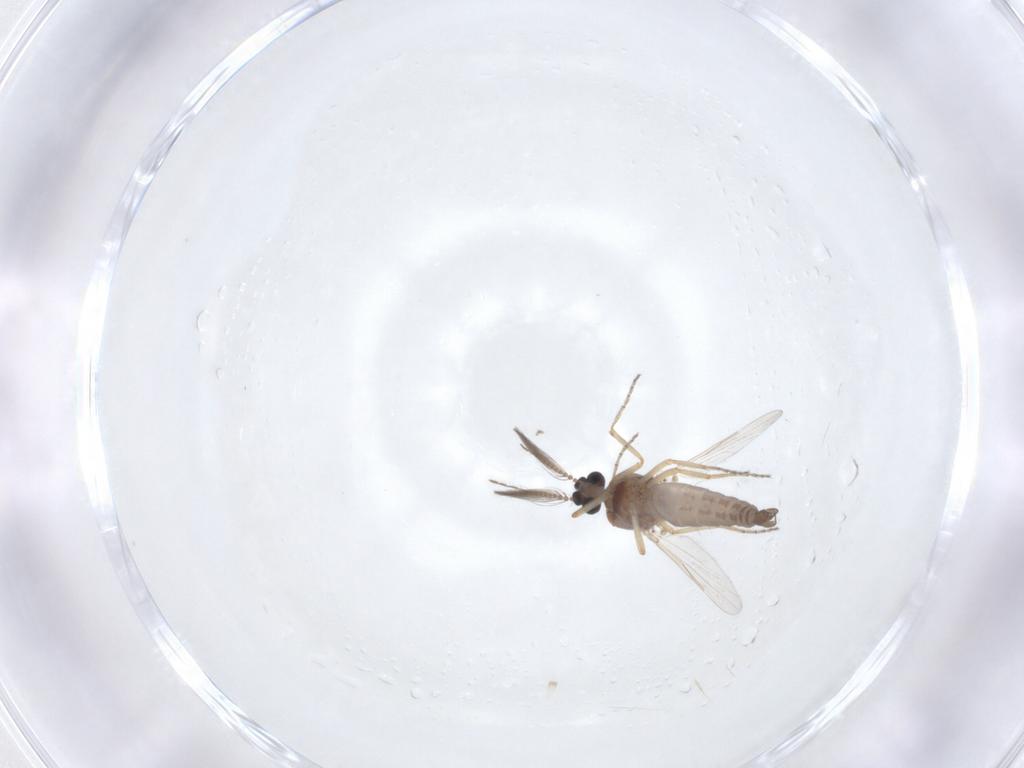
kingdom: Animalia
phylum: Arthropoda
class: Insecta
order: Diptera
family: Ceratopogonidae
